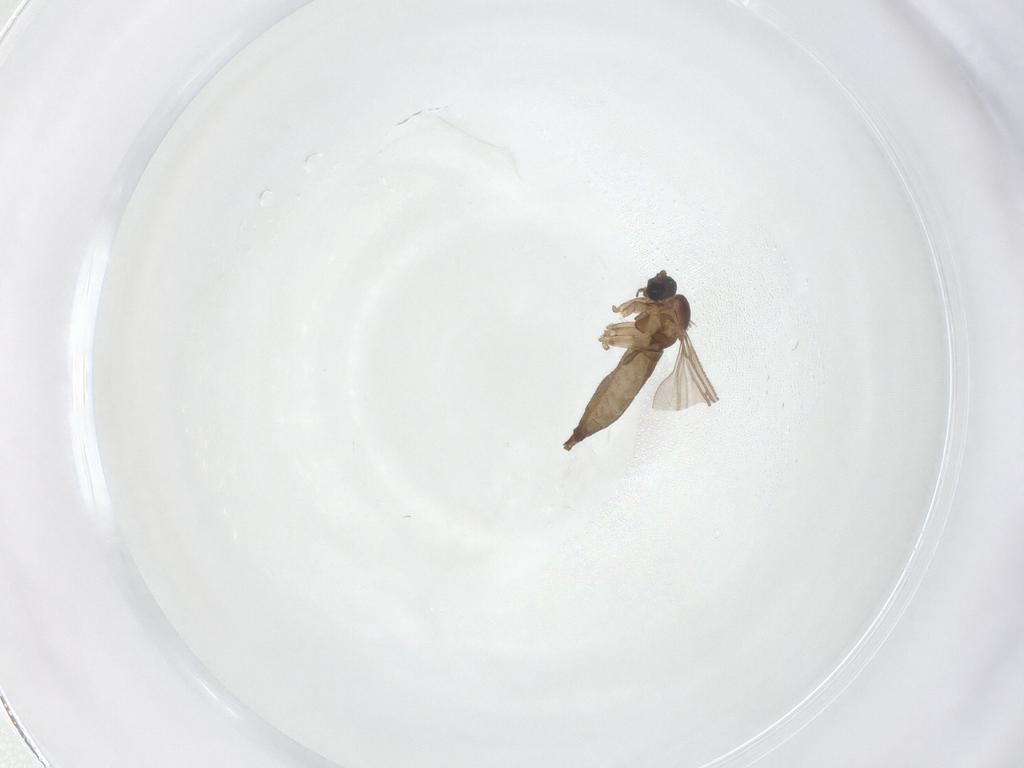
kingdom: Animalia
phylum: Arthropoda
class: Insecta
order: Diptera
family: Sciaridae
